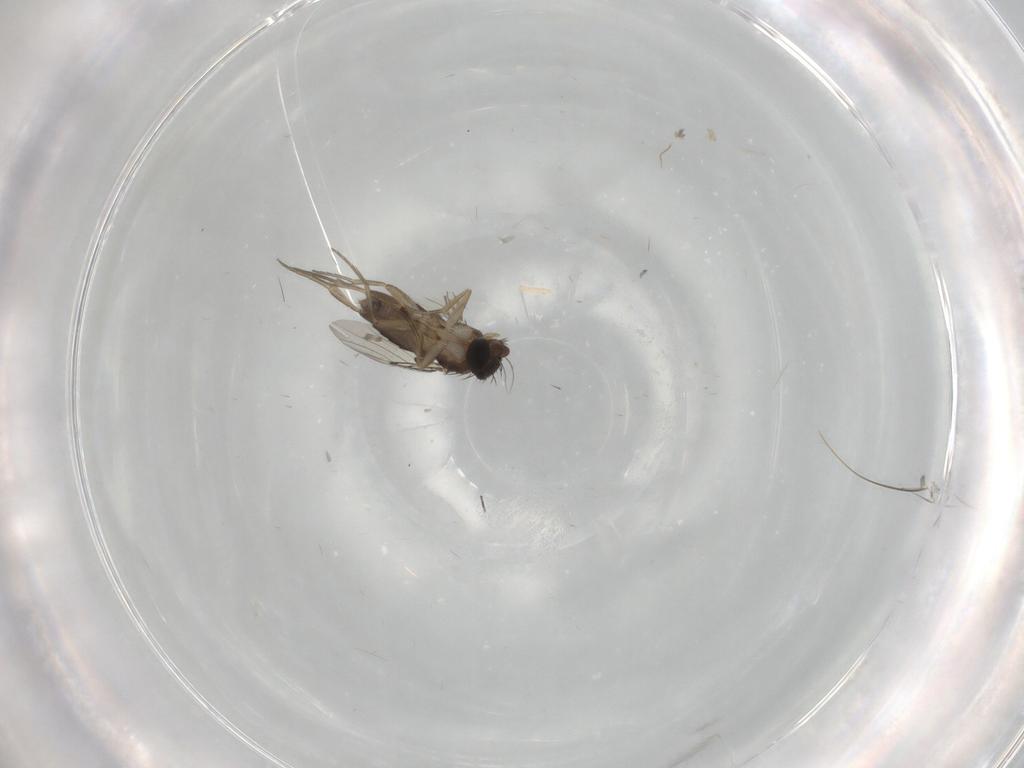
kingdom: Animalia
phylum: Arthropoda
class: Insecta
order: Diptera
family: Phoridae
